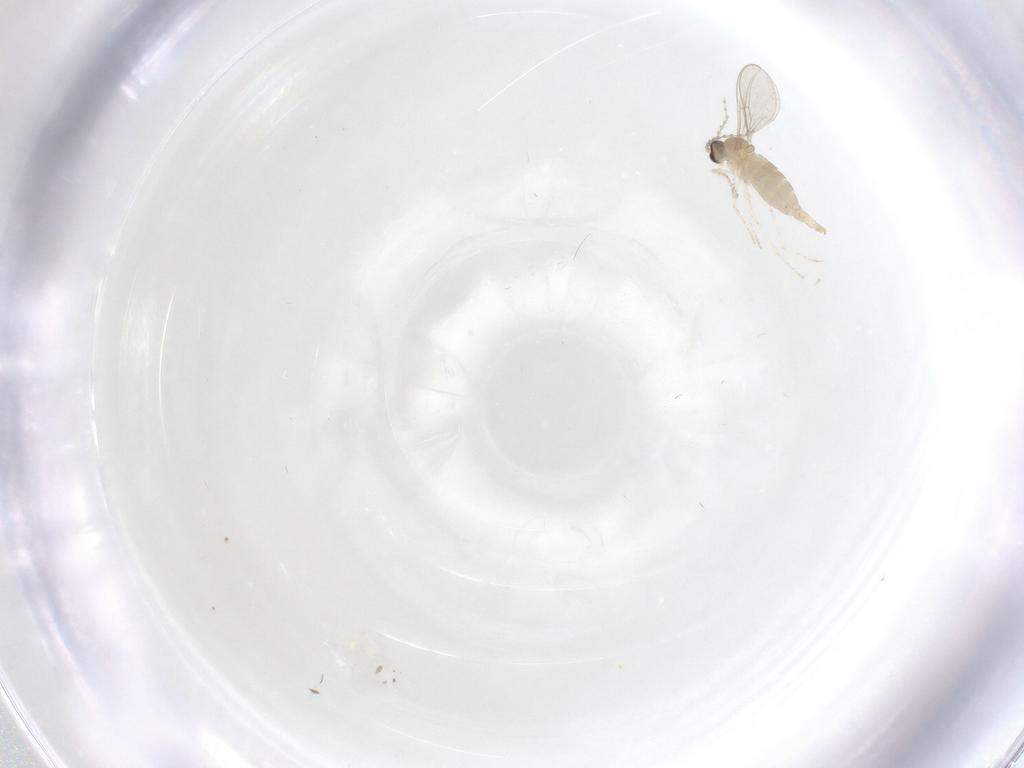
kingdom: Animalia
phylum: Arthropoda
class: Insecta
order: Diptera
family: Cecidomyiidae
